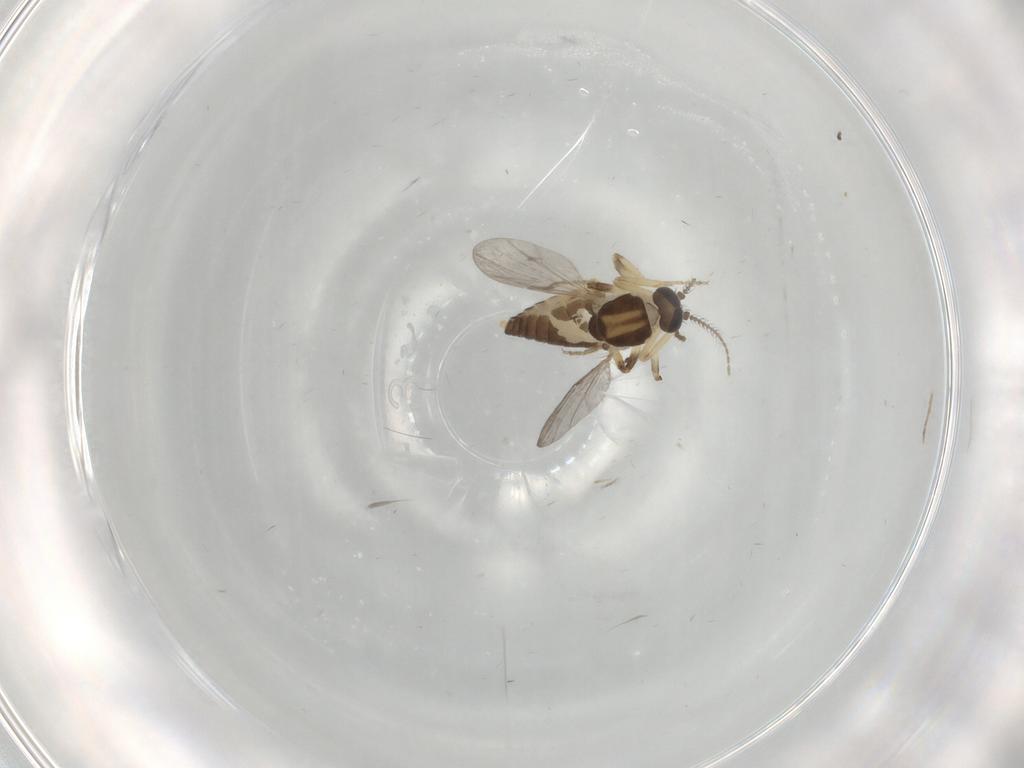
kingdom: Animalia
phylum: Arthropoda
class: Insecta
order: Diptera
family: Ceratopogonidae
